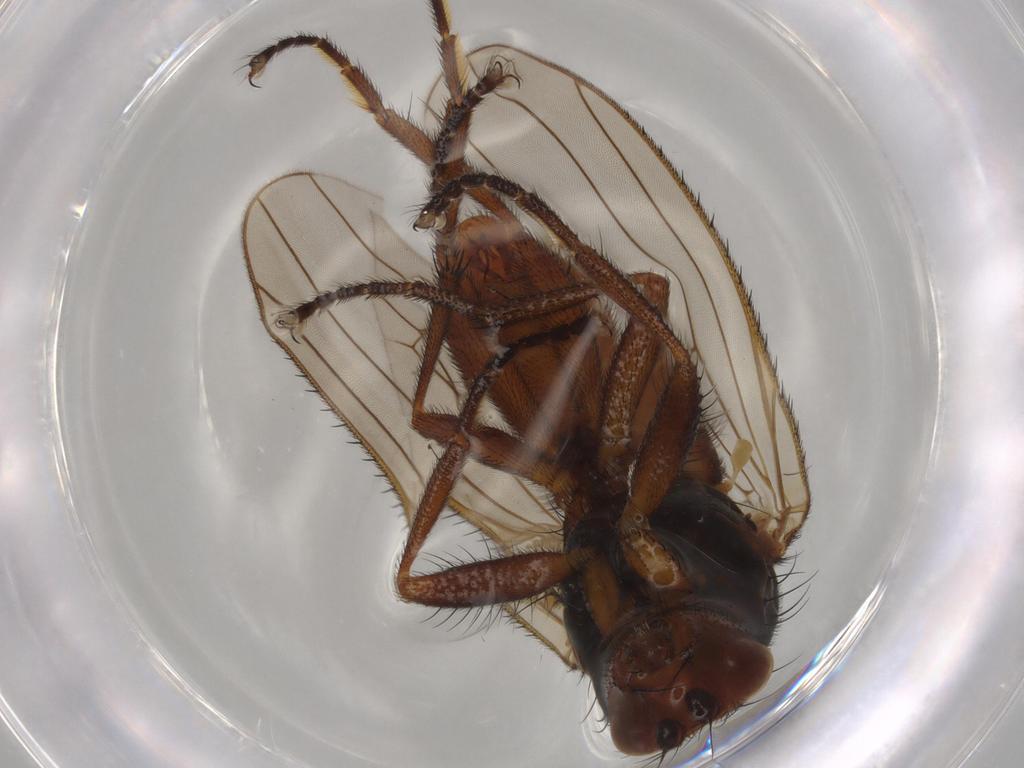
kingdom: Animalia
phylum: Arthropoda
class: Insecta
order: Diptera
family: Heleomyzidae
